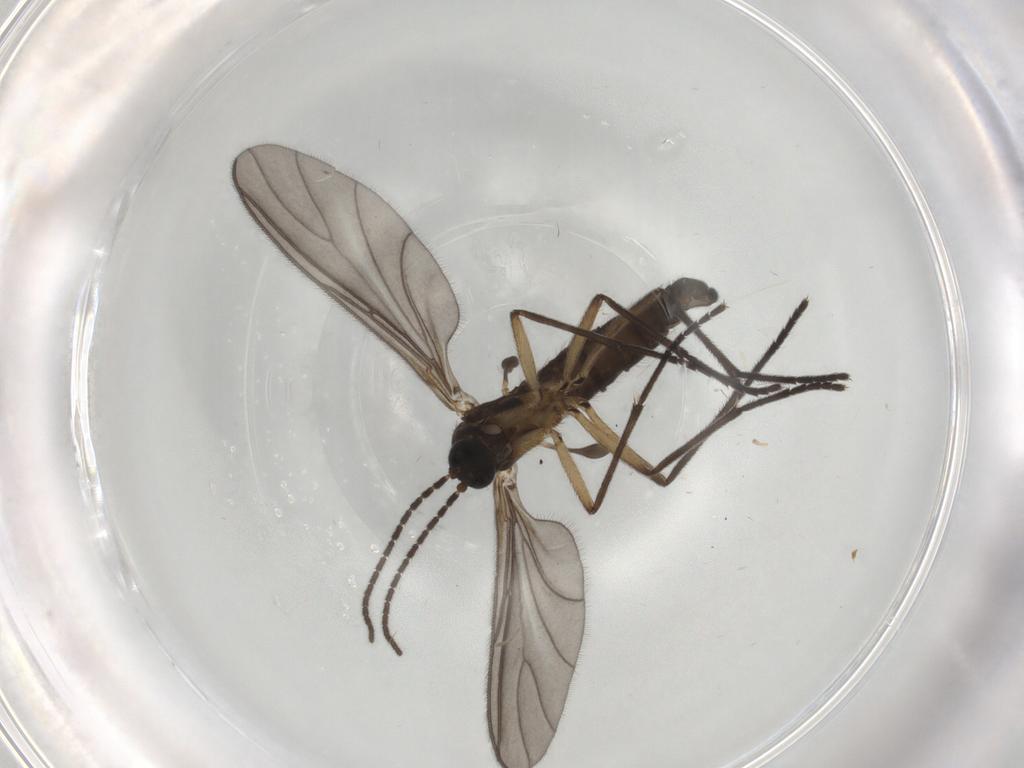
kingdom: Animalia
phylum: Arthropoda
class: Insecta
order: Diptera
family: Sciaridae
